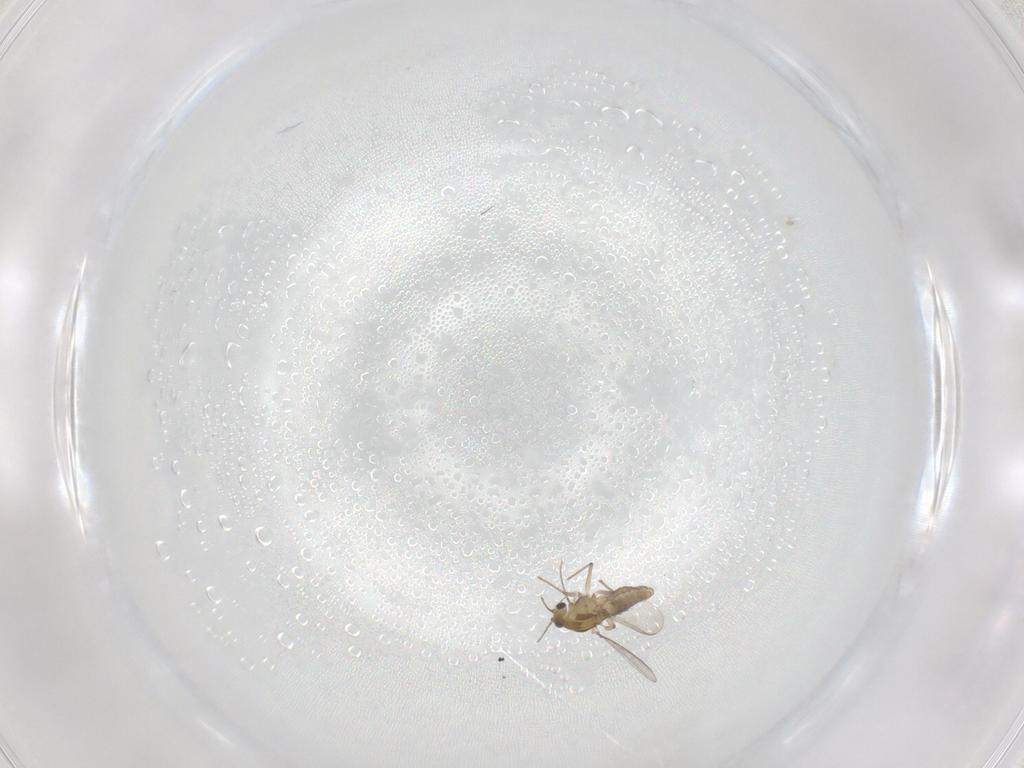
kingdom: Animalia
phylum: Arthropoda
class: Insecta
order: Diptera
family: Chironomidae
